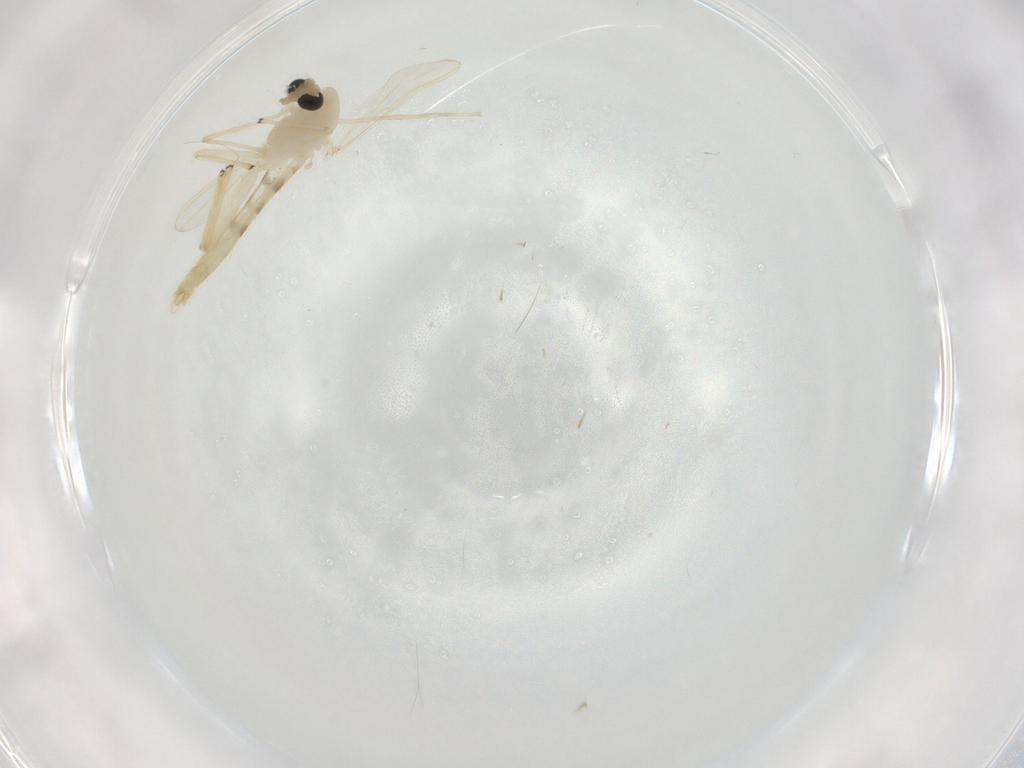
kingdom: Animalia
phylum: Arthropoda
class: Insecta
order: Diptera
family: Chironomidae
